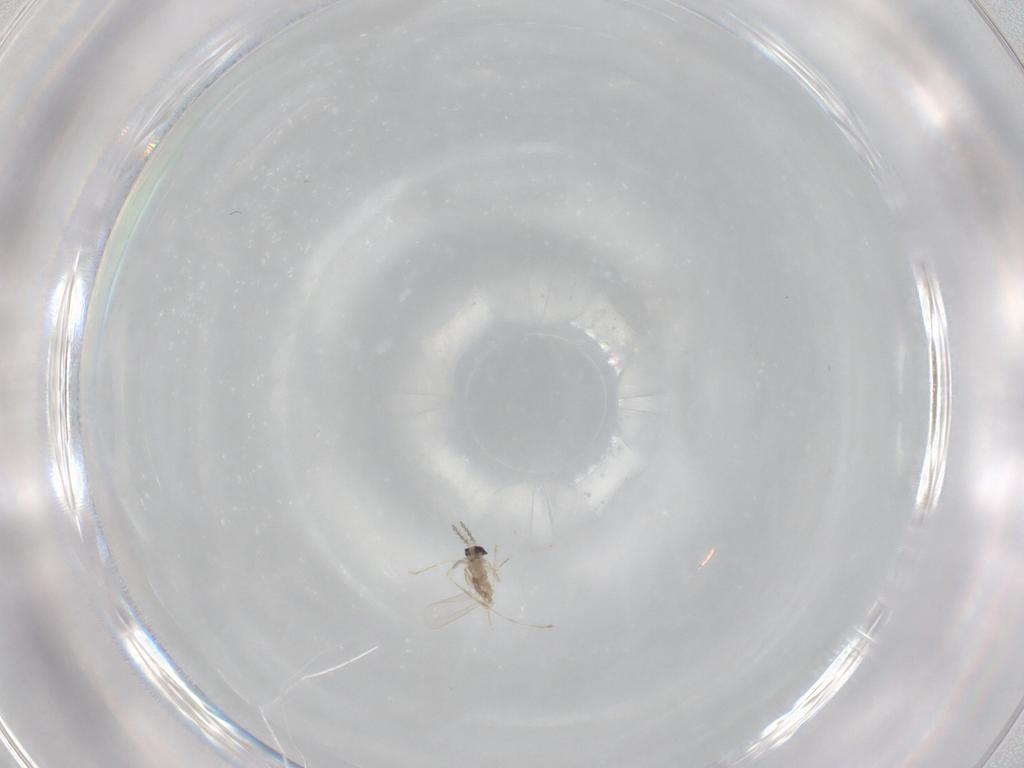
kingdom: Animalia
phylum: Arthropoda
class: Insecta
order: Diptera
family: Cecidomyiidae
